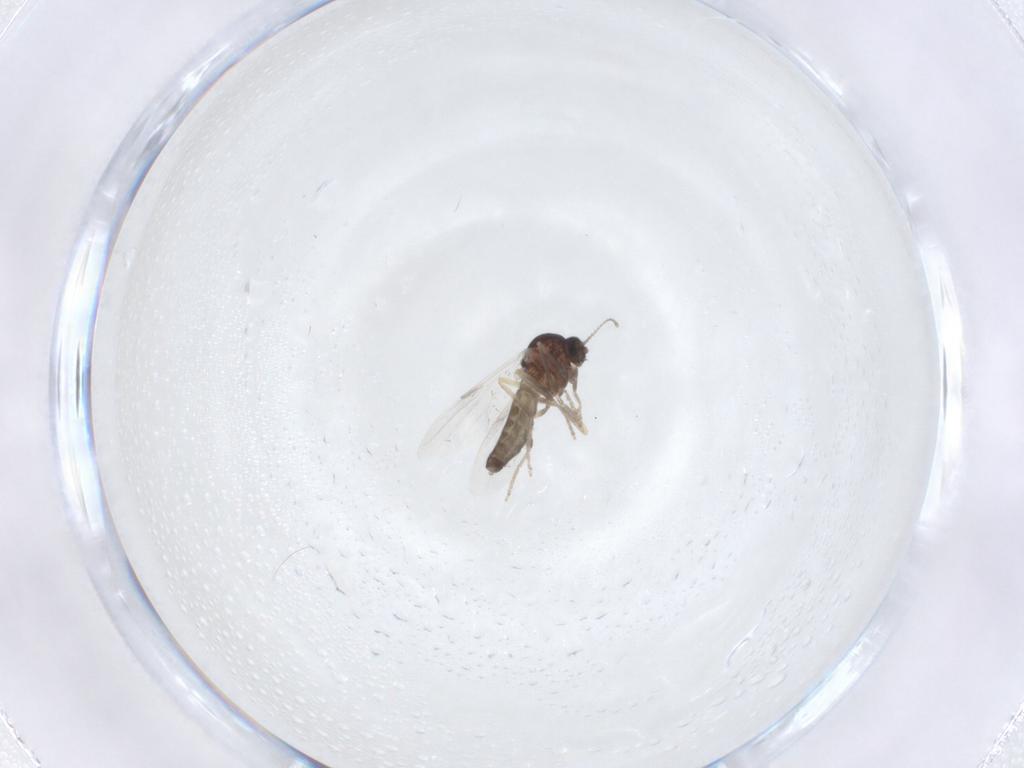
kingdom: Animalia
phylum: Arthropoda
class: Insecta
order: Diptera
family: Ceratopogonidae
